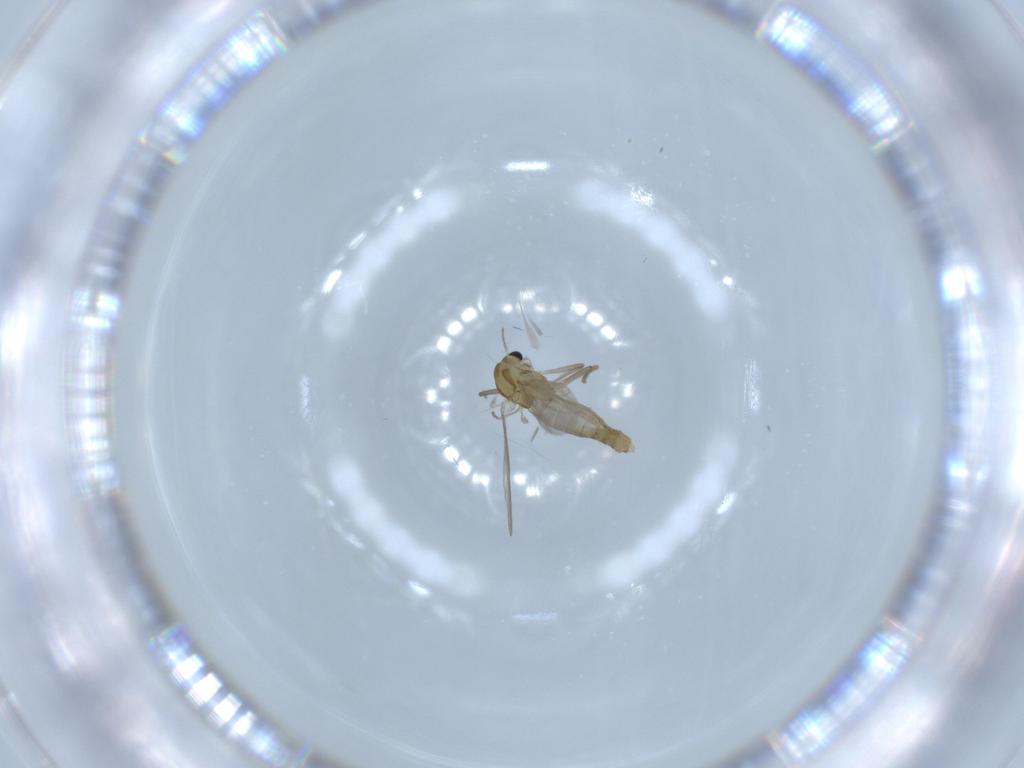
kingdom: Animalia
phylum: Arthropoda
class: Insecta
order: Diptera
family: Chironomidae
